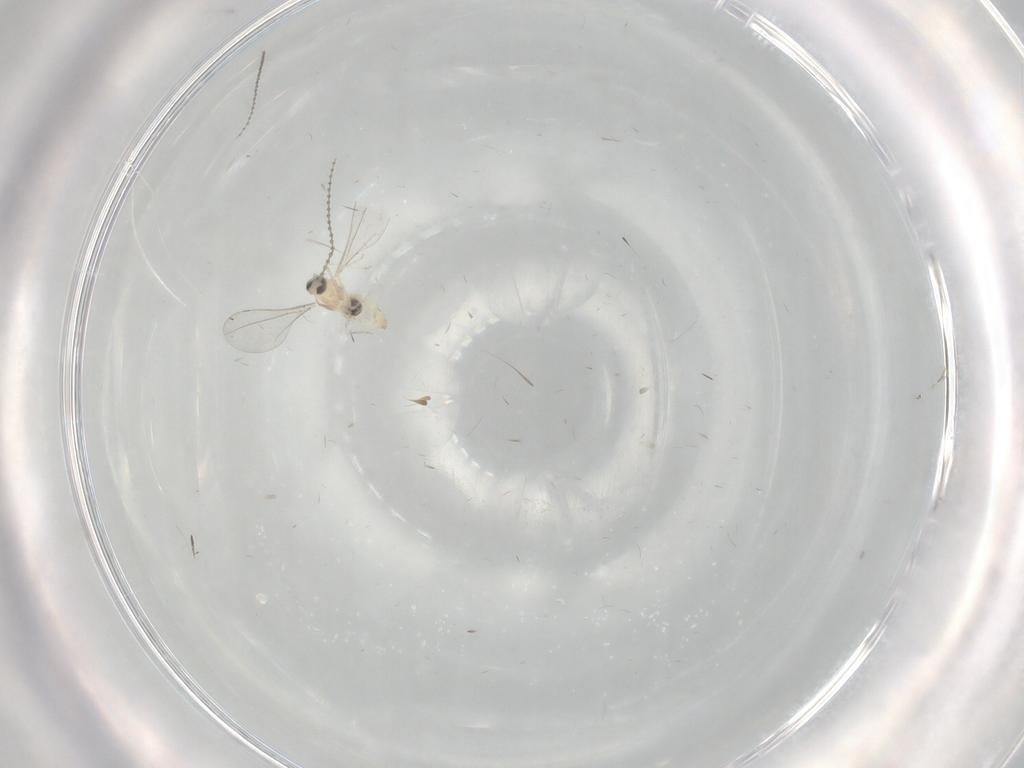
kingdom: Animalia
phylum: Arthropoda
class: Insecta
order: Diptera
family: Cecidomyiidae
